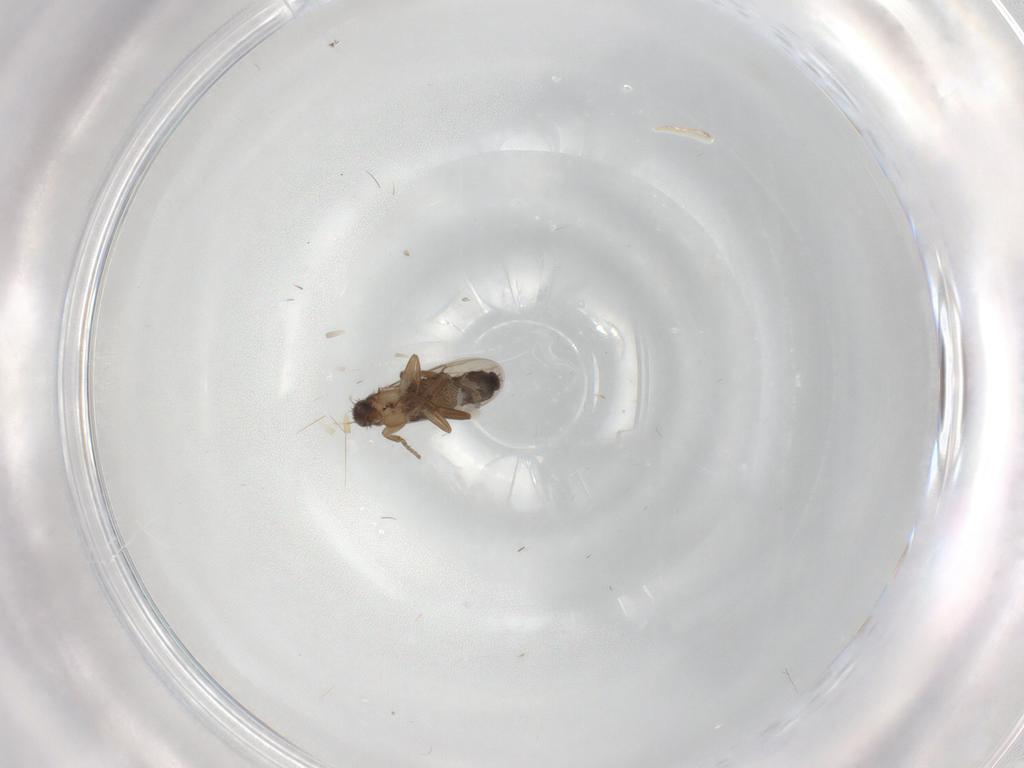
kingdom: Animalia
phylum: Arthropoda
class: Insecta
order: Diptera
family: Phoridae
